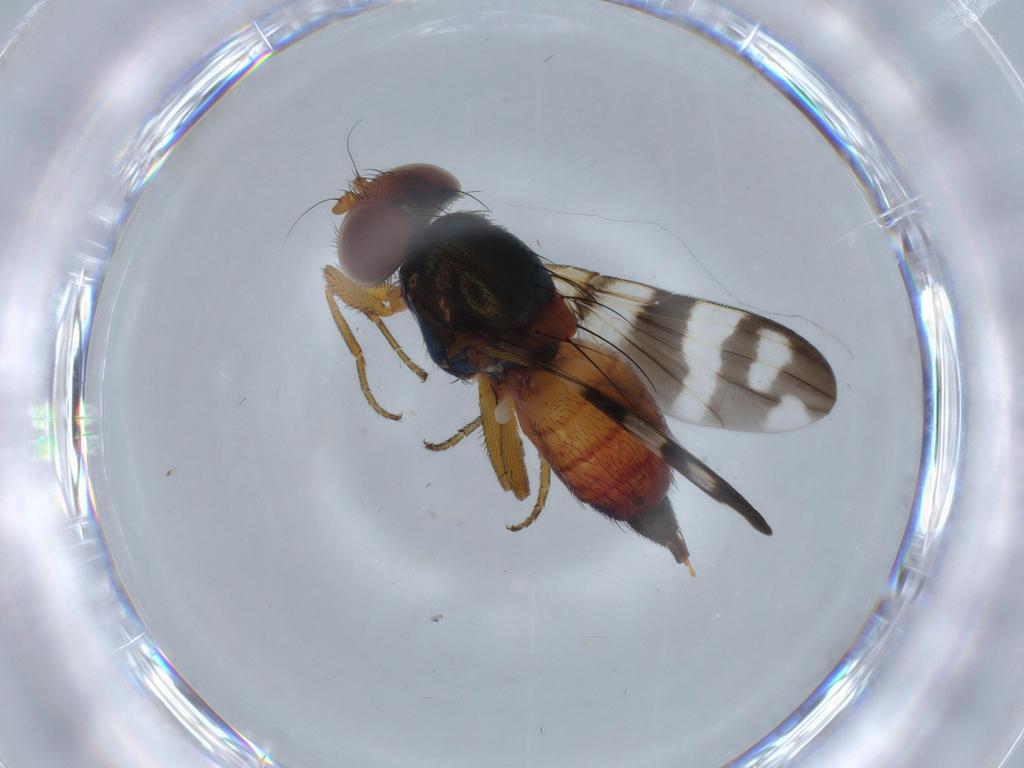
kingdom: Animalia
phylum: Arthropoda
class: Insecta
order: Diptera
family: Ulidiidae
